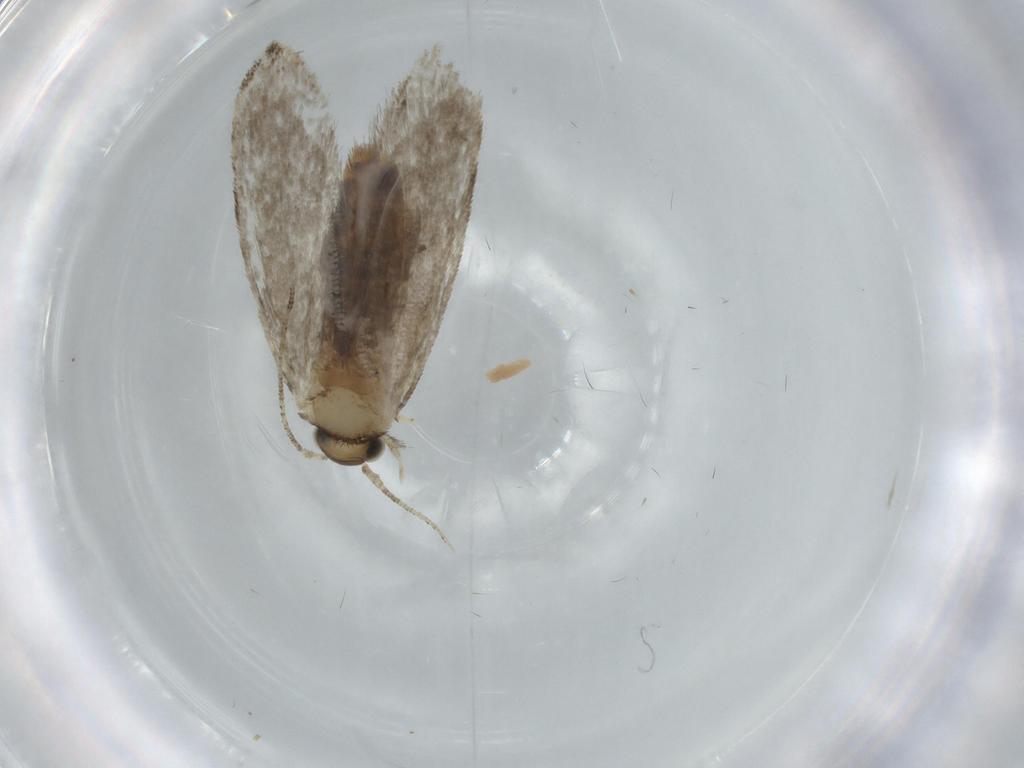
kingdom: Animalia
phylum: Arthropoda
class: Insecta
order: Lepidoptera
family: Tineidae
